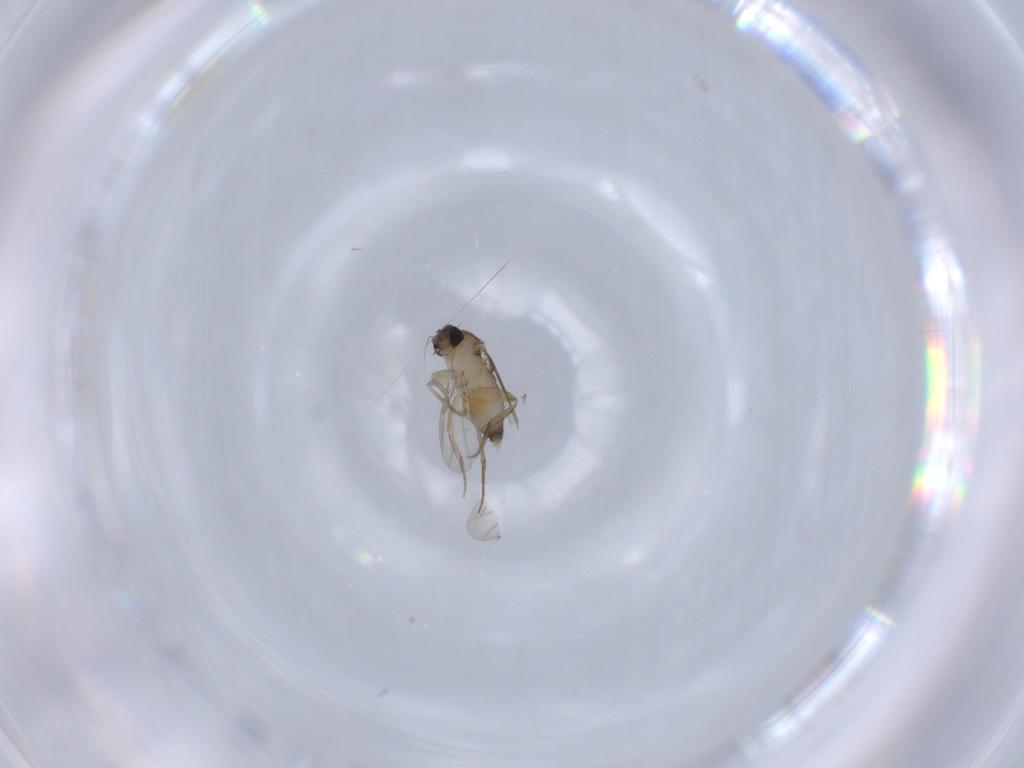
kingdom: Animalia
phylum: Arthropoda
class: Insecta
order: Diptera
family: Phoridae
